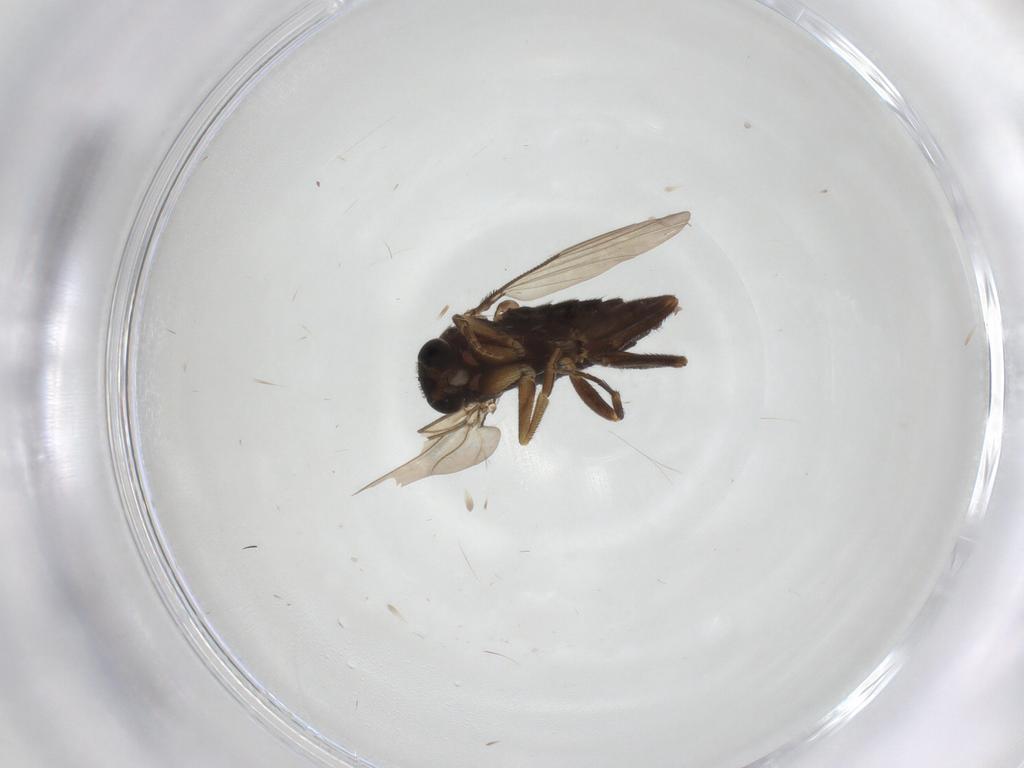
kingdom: Animalia
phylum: Arthropoda
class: Insecta
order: Diptera
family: Phoridae
